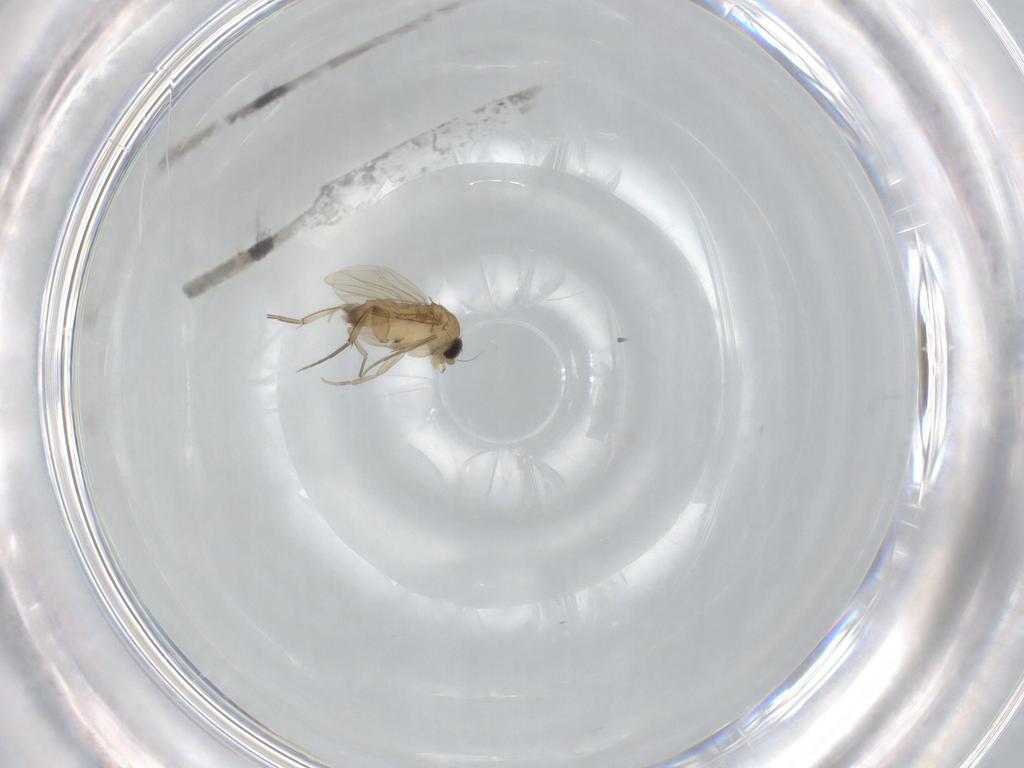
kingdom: Animalia
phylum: Arthropoda
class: Insecta
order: Diptera
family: Phoridae
